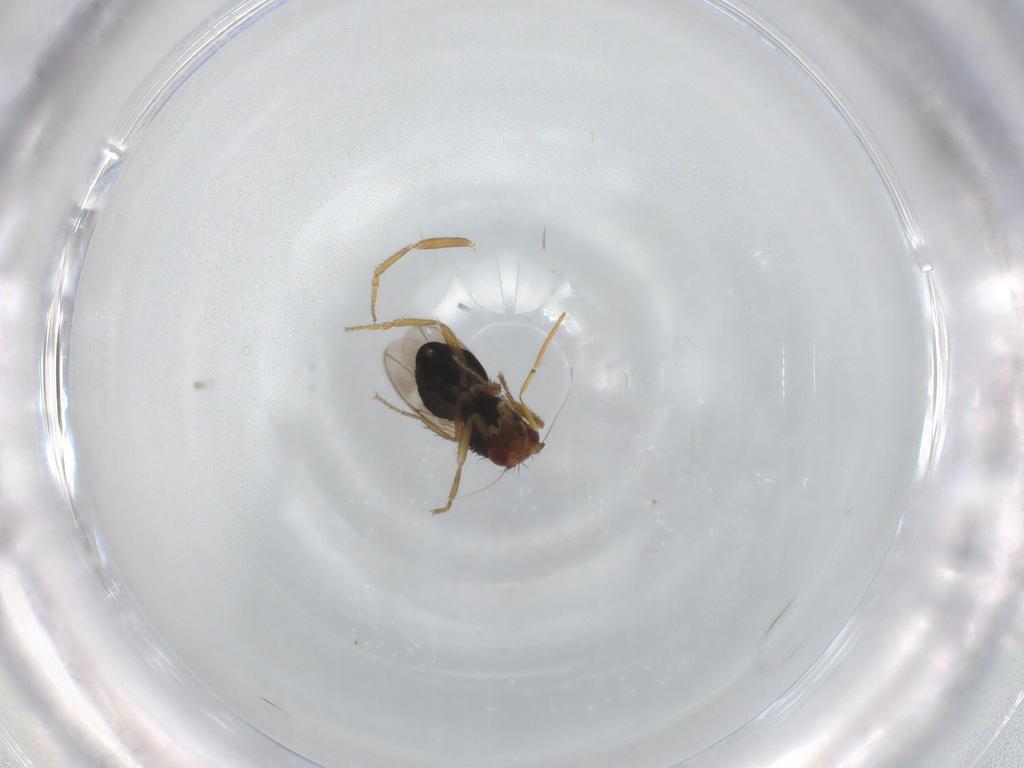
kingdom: Animalia
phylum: Arthropoda
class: Insecta
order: Diptera
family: Sphaeroceridae
